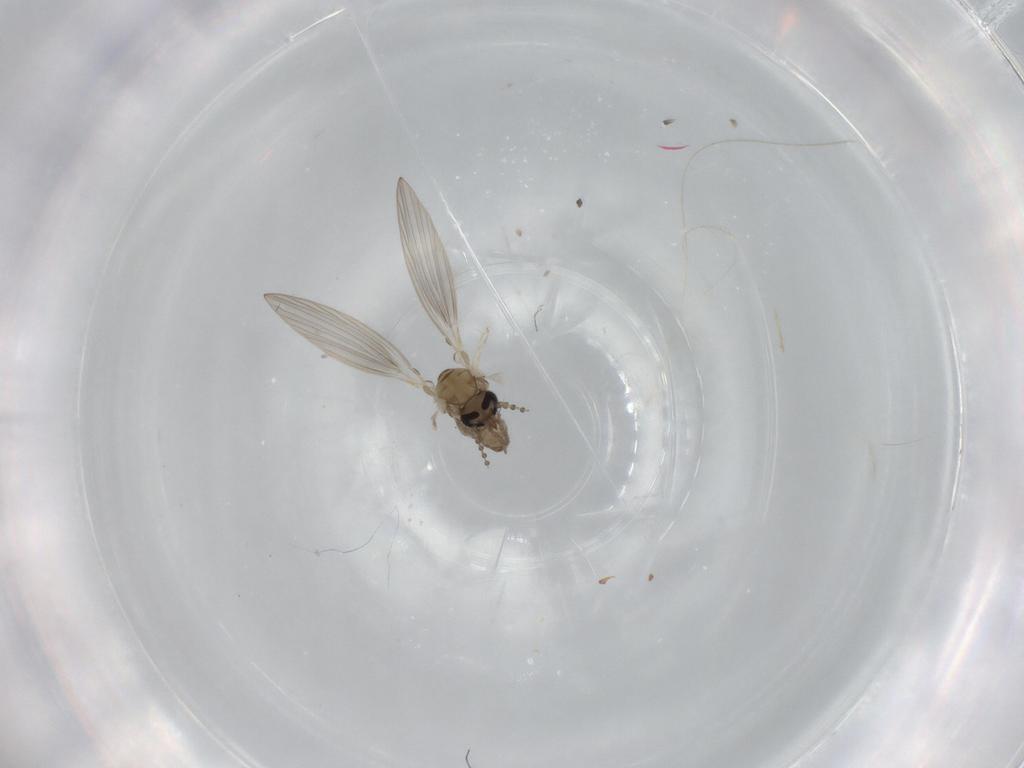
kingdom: Animalia
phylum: Arthropoda
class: Insecta
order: Diptera
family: Psychodidae
